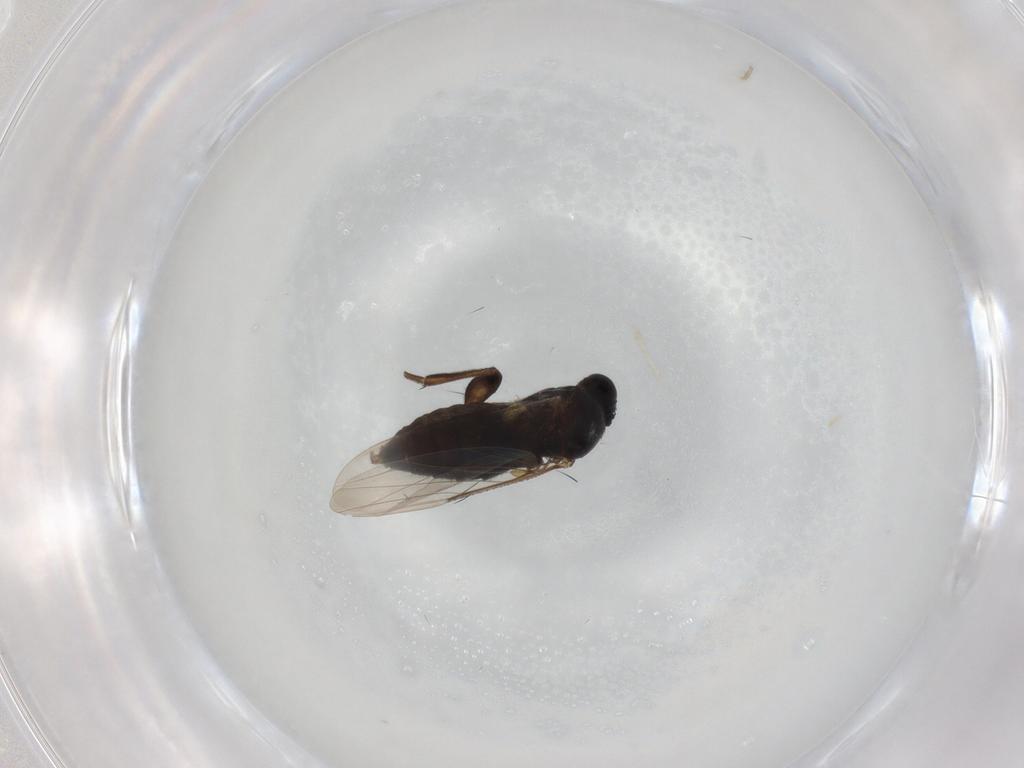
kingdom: Animalia
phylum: Arthropoda
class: Insecta
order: Diptera
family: Phoridae
